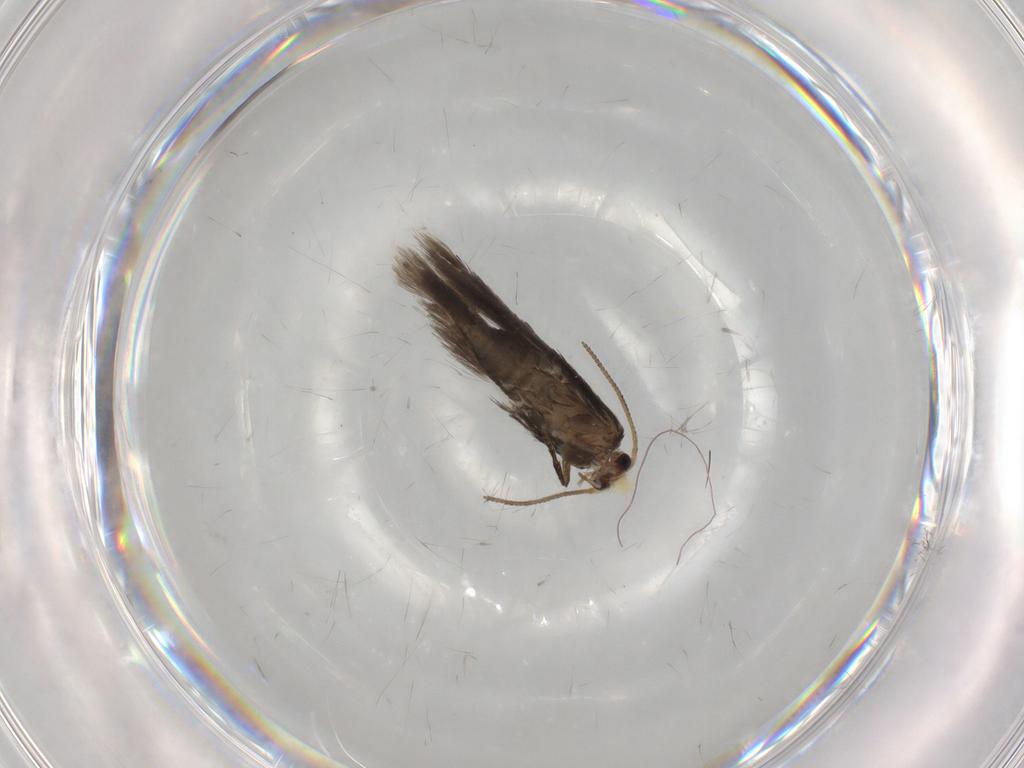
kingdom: Animalia
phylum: Arthropoda
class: Insecta
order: Lepidoptera
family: Nepticulidae
